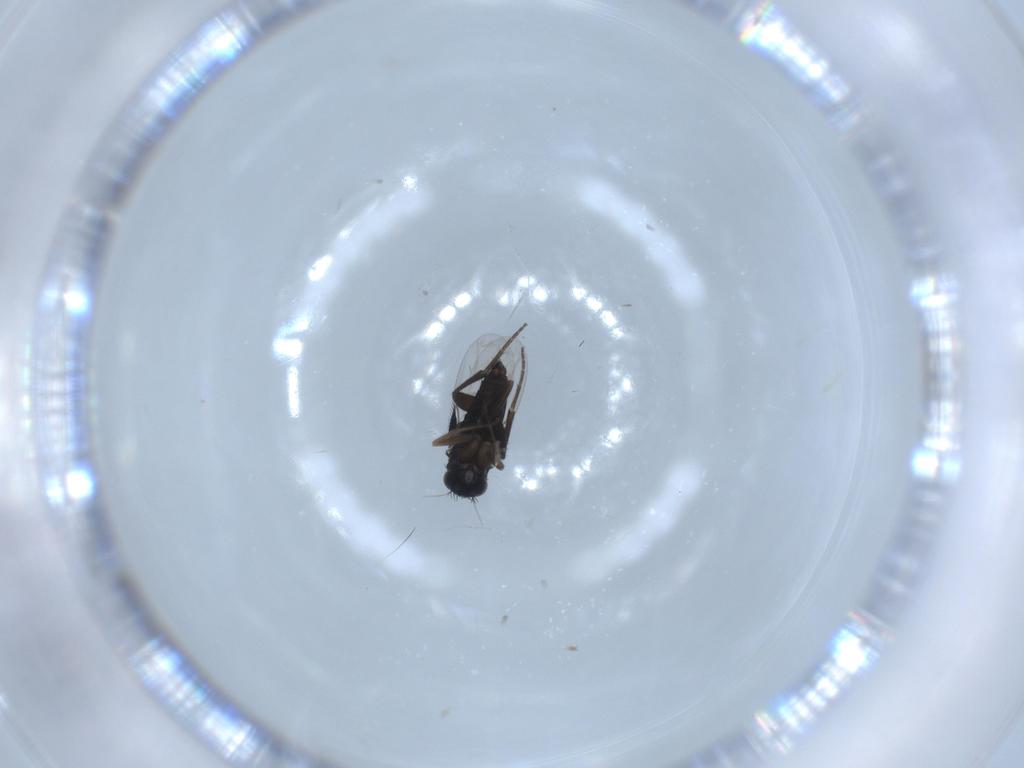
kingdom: Animalia
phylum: Arthropoda
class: Insecta
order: Diptera
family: Phoridae
